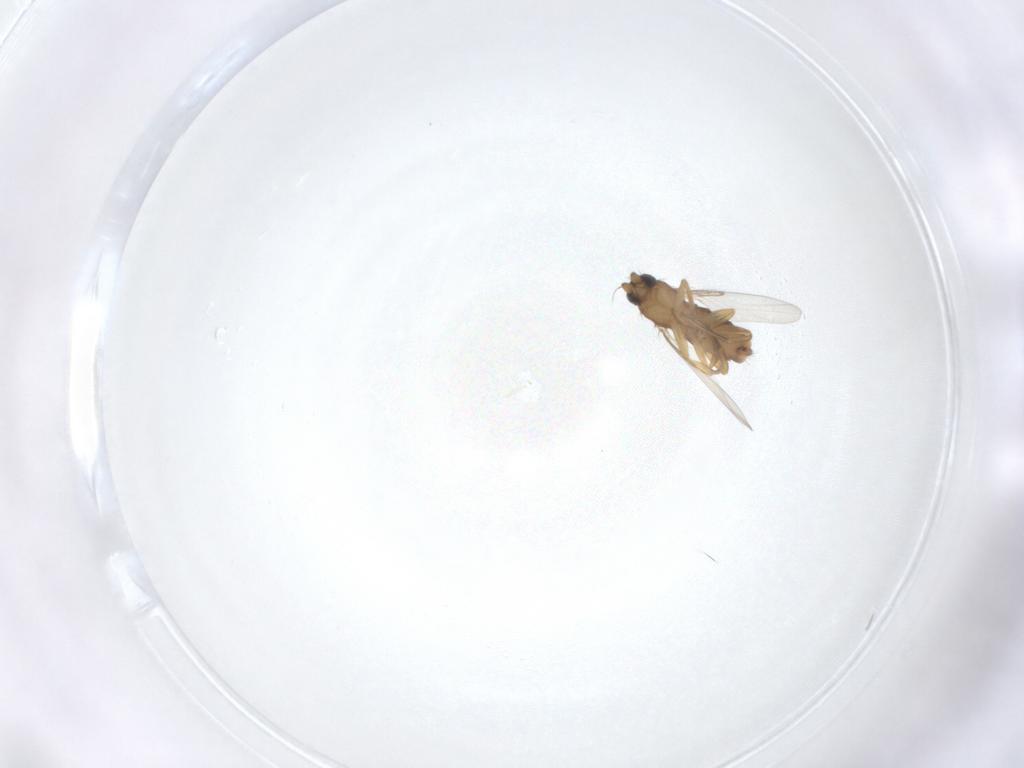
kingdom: Animalia
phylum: Arthropoda
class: Insecta
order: Diptera
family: Phoridae
